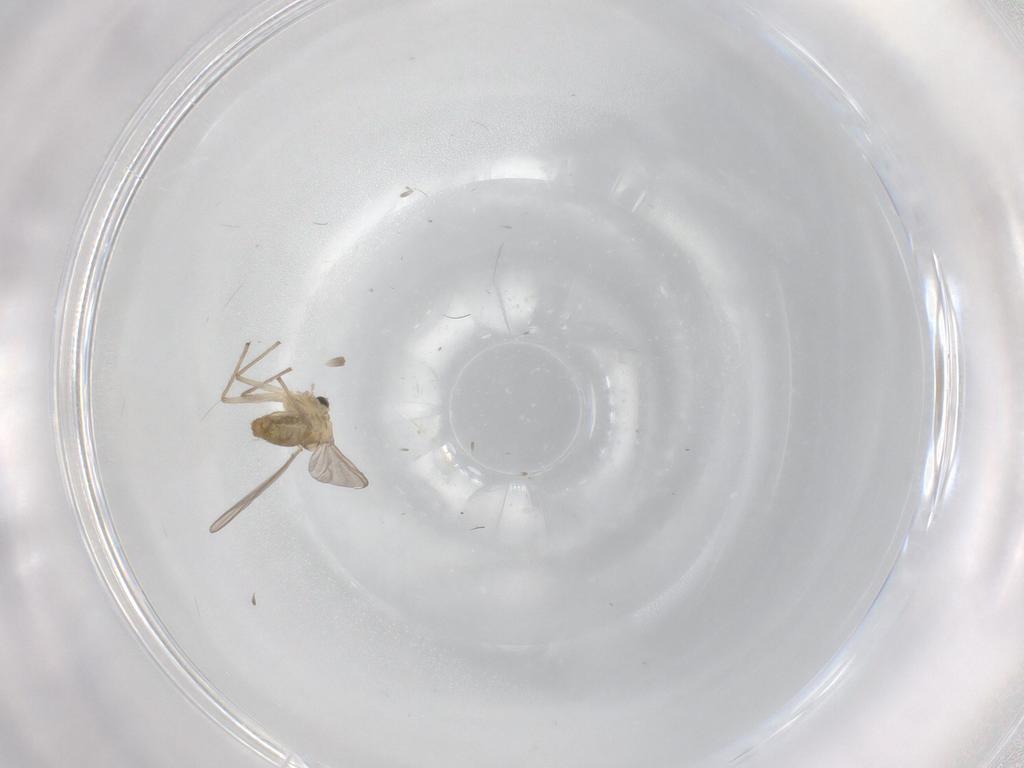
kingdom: Animalia
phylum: Arthropoda
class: Insecta
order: Diptera
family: Chironomidae
